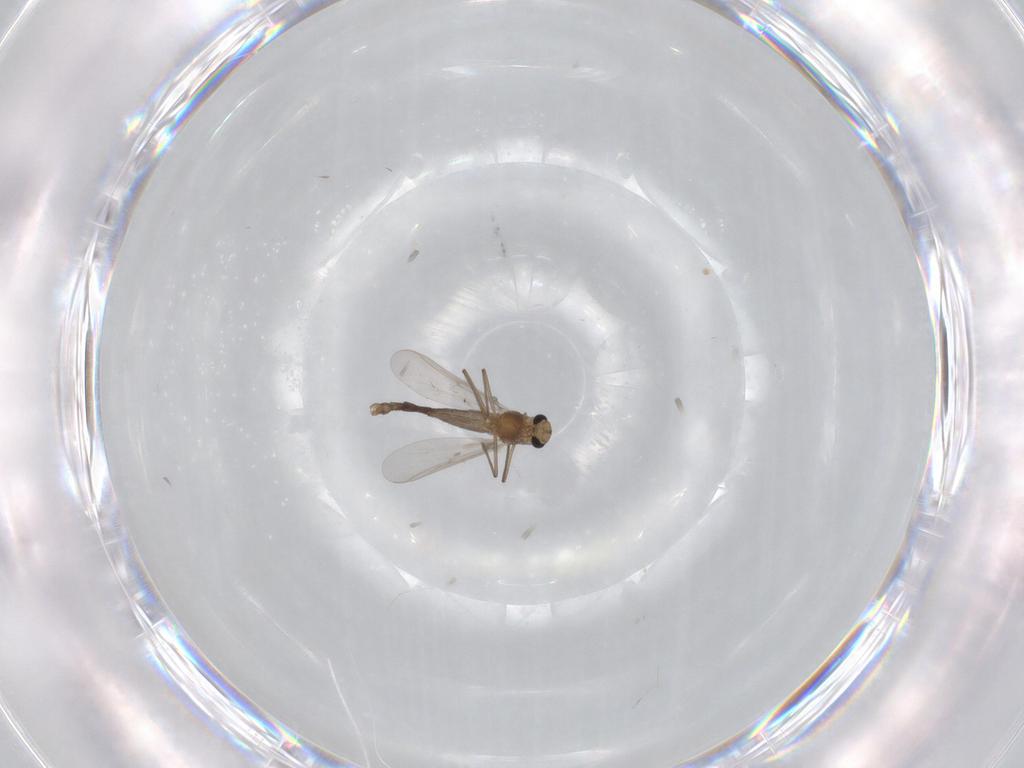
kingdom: Animalia
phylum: Arthropoda
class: Insecta
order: Diptera
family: Chironomidae
